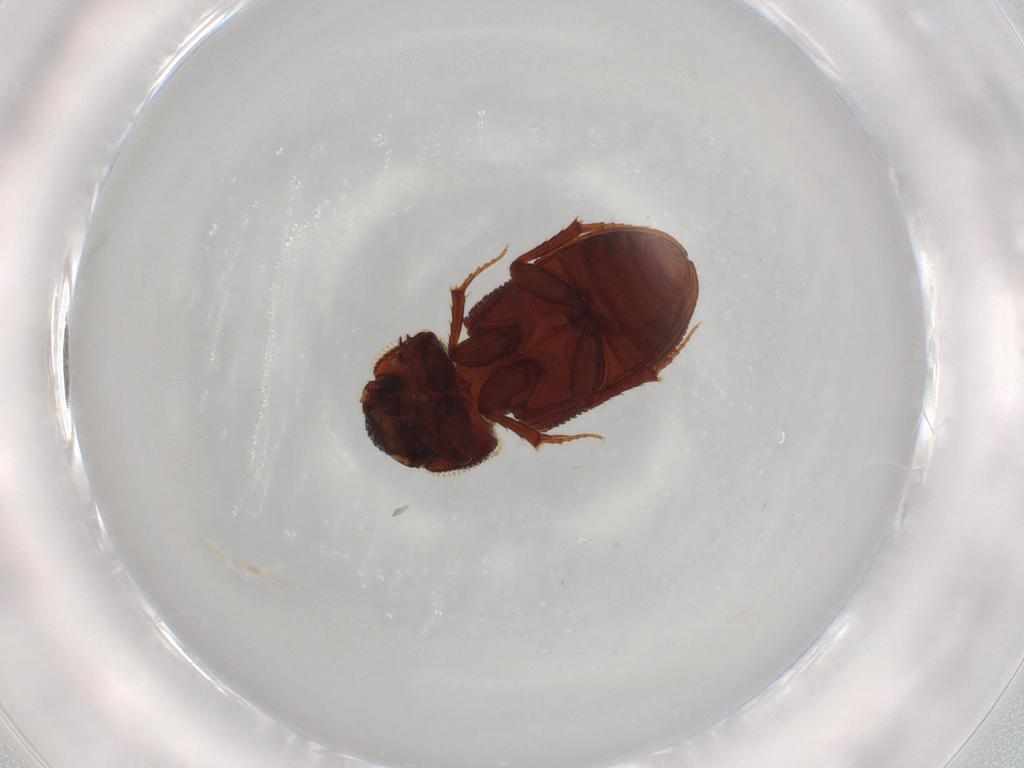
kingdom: Animalia
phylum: Arthropoda
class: Insecta
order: Coleoptera
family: Scarabaeidae
